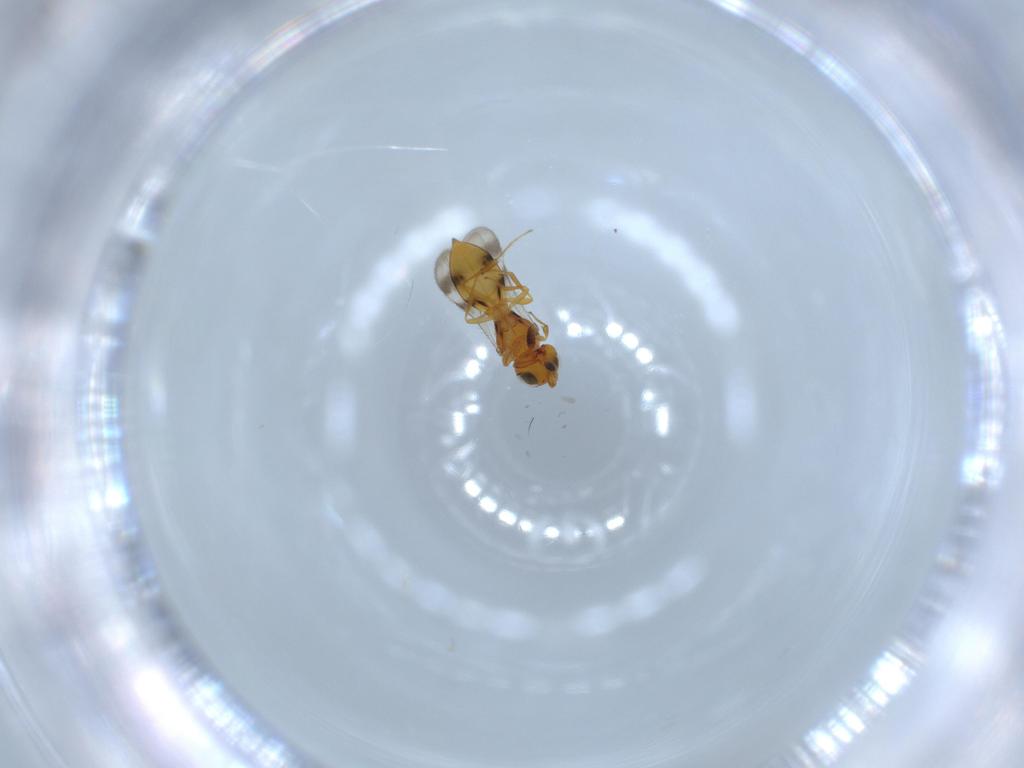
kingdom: Animalia
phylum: Arthropoda
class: Insecta
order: Hymenoptera
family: Scelionidae
